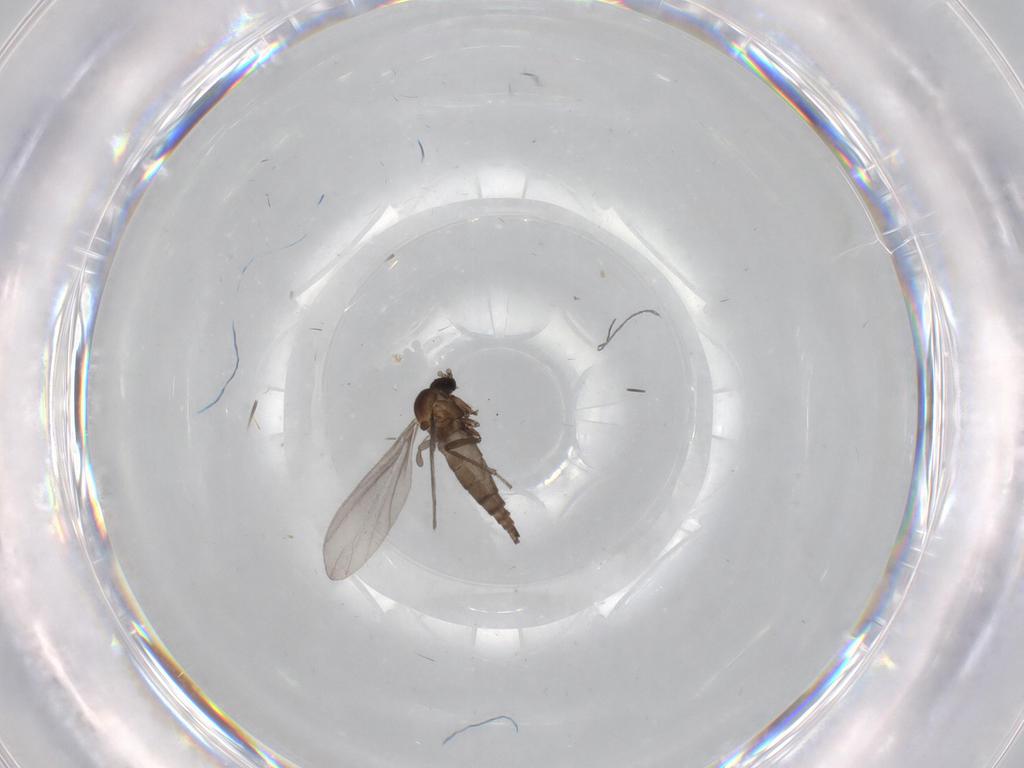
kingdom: Animalia
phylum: Arthropoda
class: Insecta
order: Diptera
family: Sciaridae
